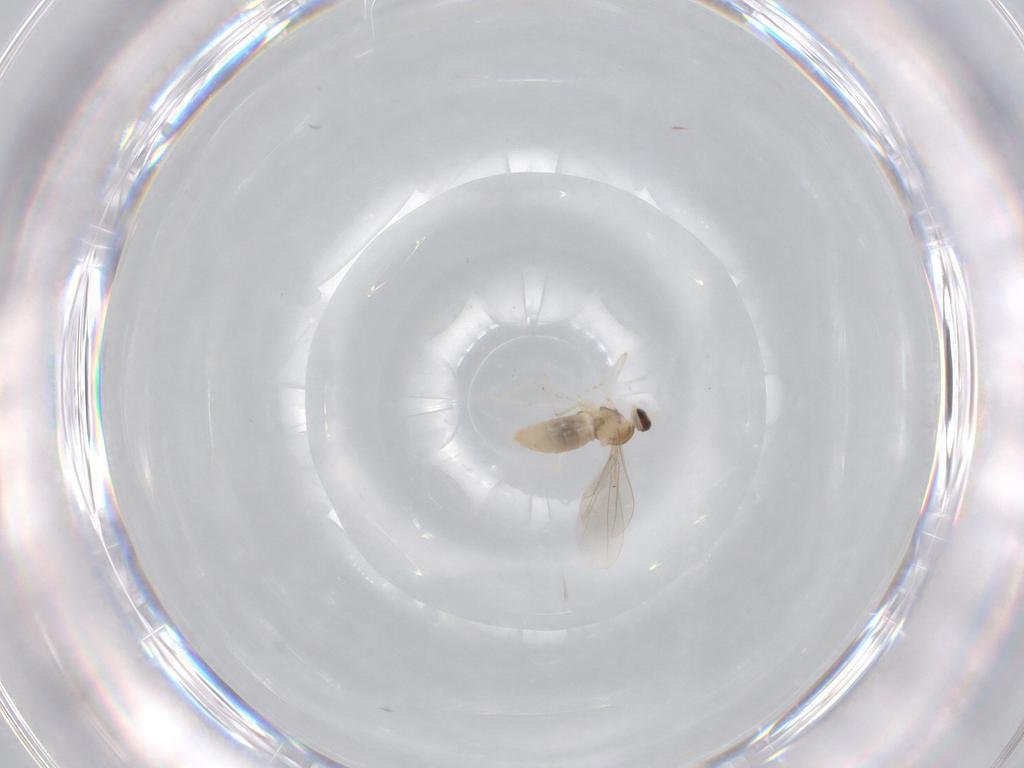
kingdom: Animalia
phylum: Arthropoda
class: Insecta
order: Diptera
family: Cecidomyiidae
